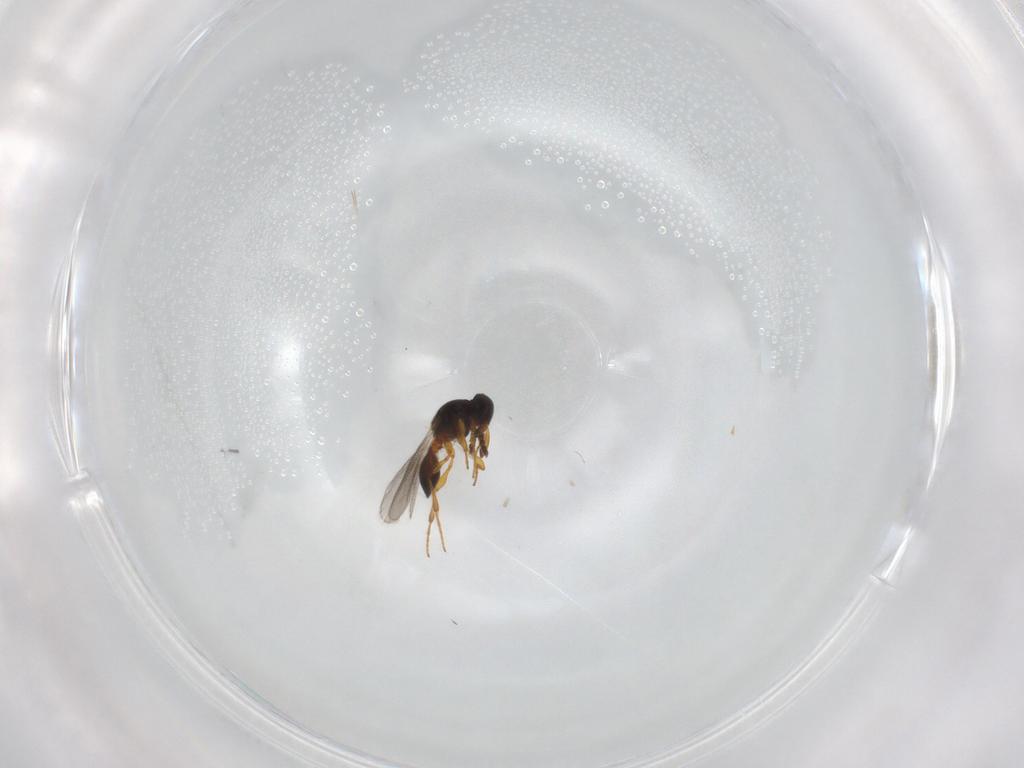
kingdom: Animalia
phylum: Arthropoda
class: Insecta
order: Hymenoptera
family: Platygastridae
